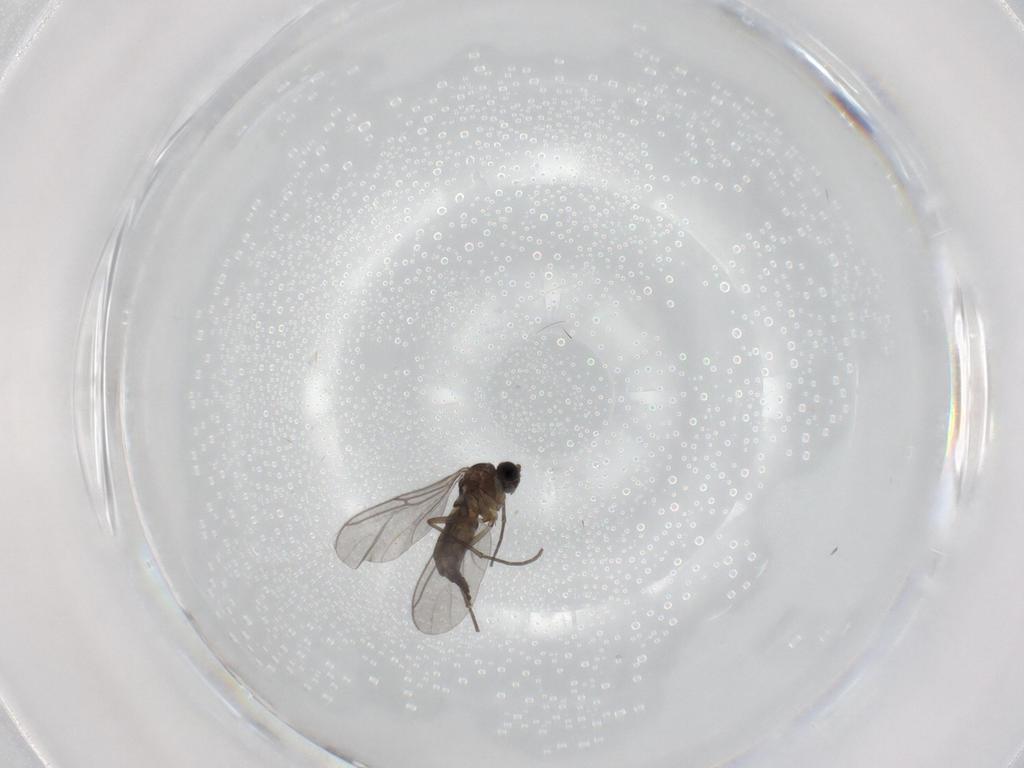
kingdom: Animalia
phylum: Arthropoda
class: Insecta
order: Diptera
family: Sciaridae
